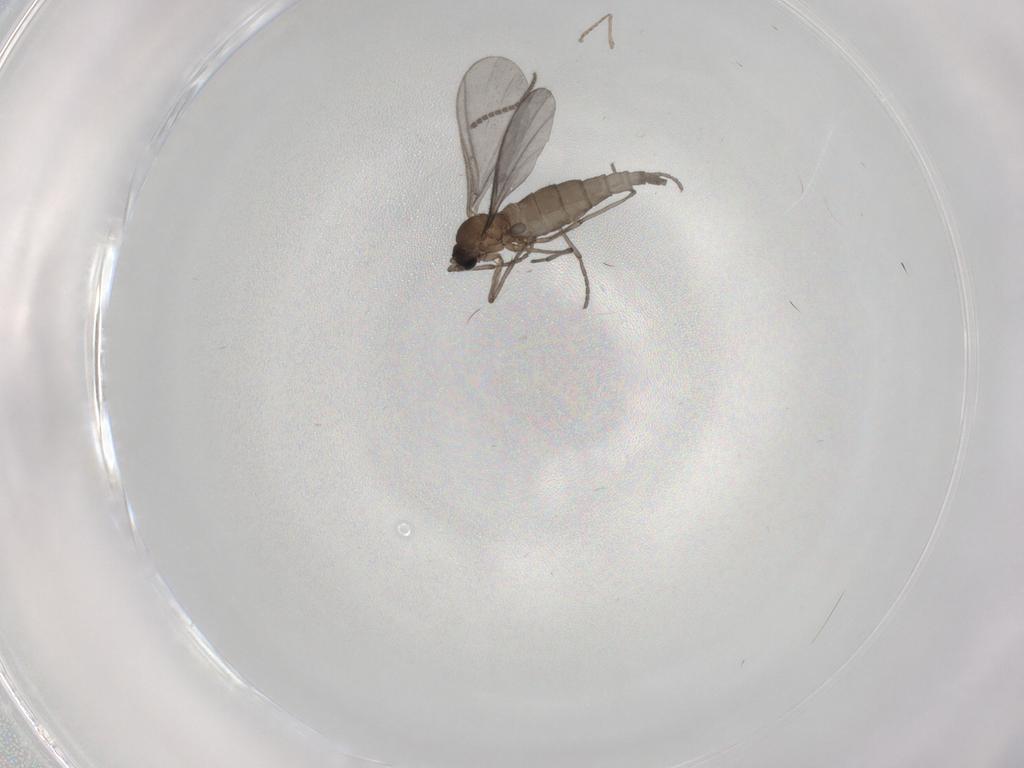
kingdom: Animalia
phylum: Arthropoda
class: Insecta
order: Diptera
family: Sciaridae
